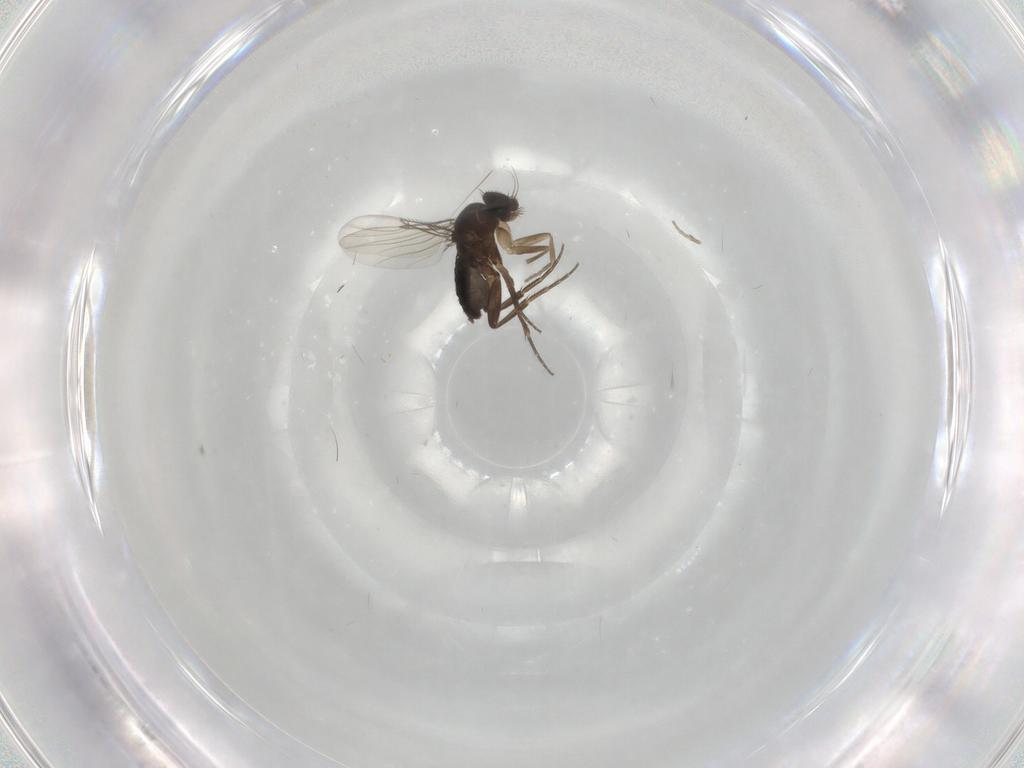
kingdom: Animalia
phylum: Arthropoda
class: Insecta
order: Diptera
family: Phoridae
